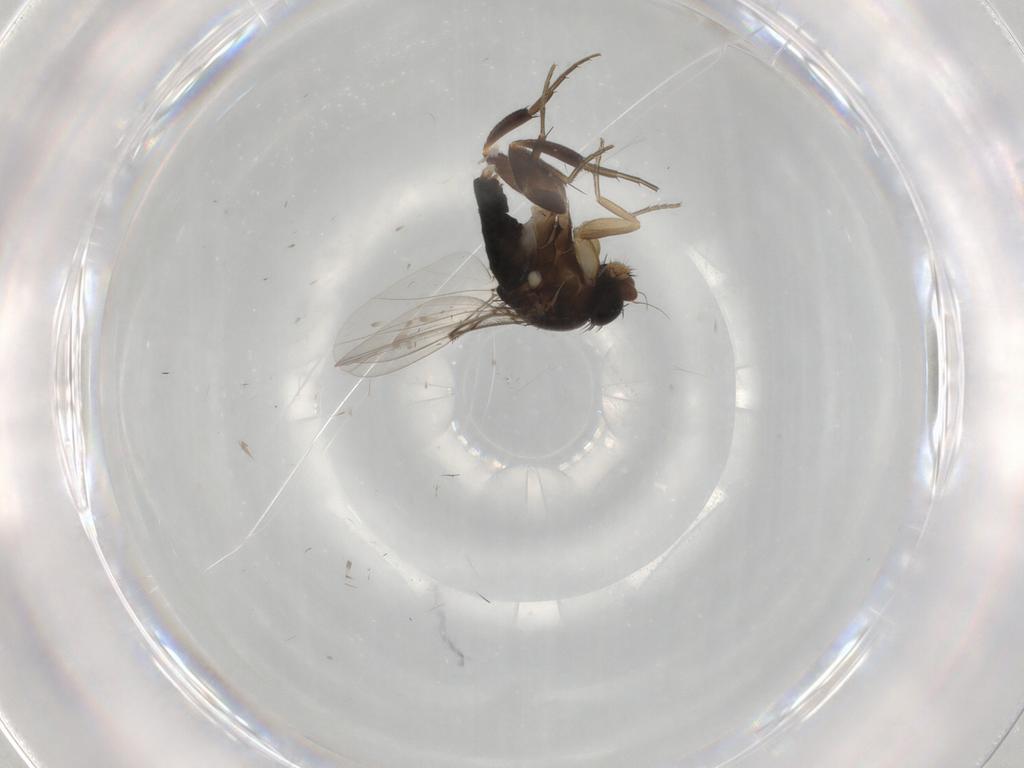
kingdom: Animalia
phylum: Arthropoda
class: Insecta
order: Diptera
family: Phoridae
